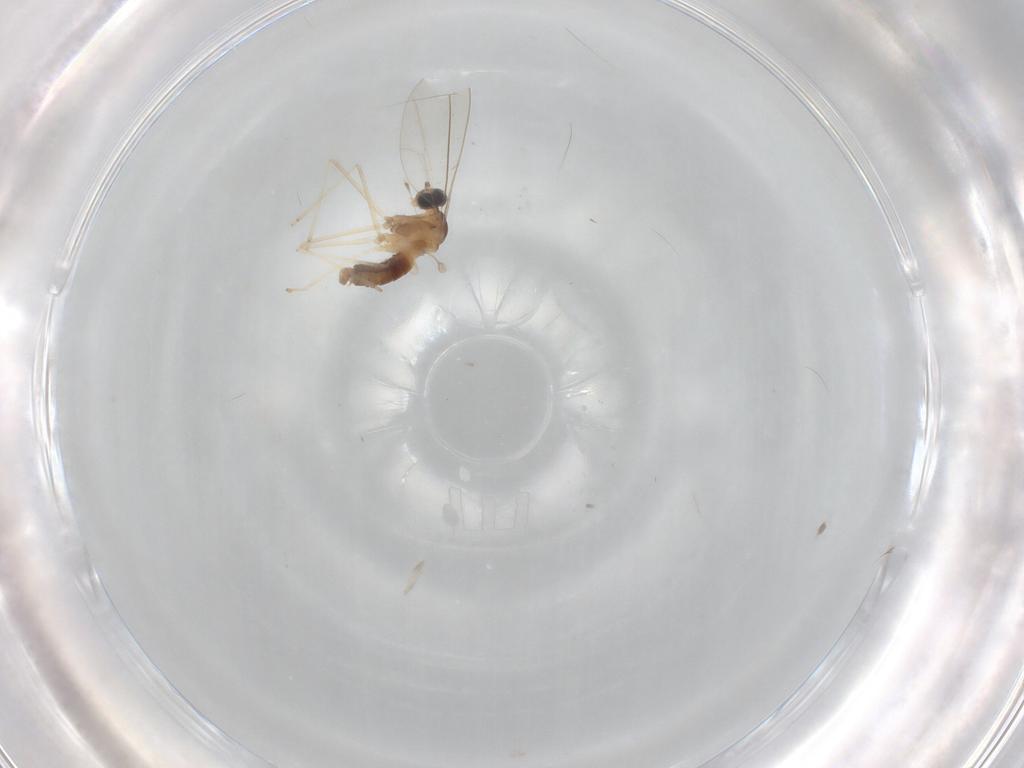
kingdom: Animalia
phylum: Arthropoda
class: Insecta
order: Diptera
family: Cecidomyiidae
